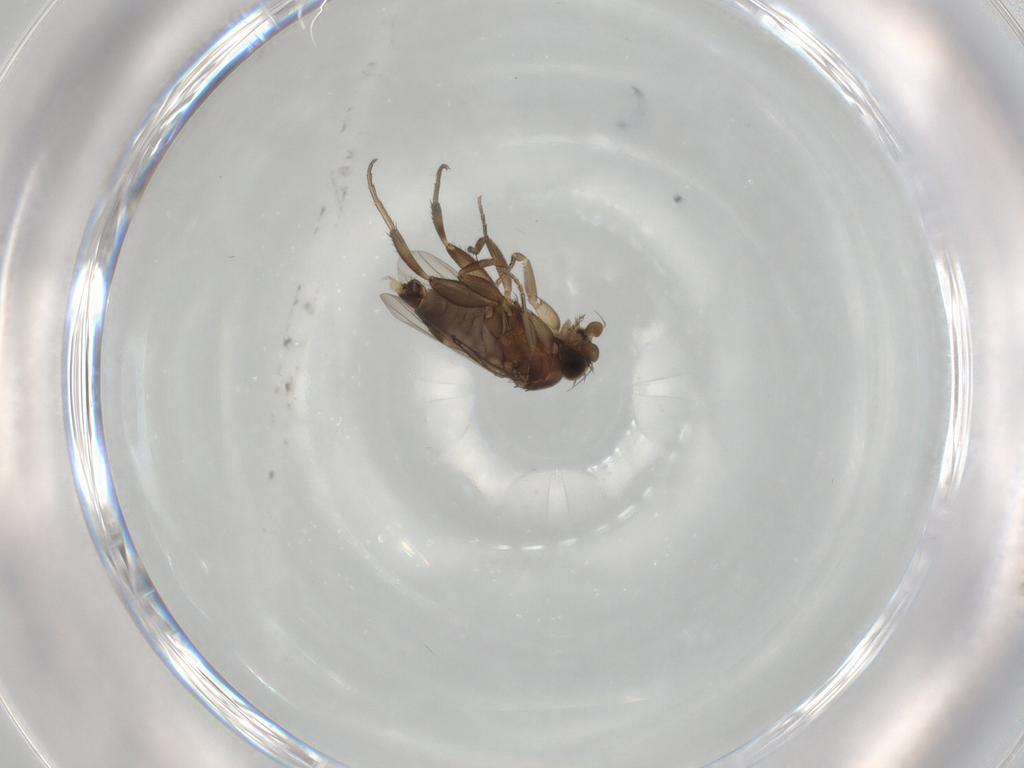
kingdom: Animalia
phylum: Arthropoda
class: Insecta
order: Diptera
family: Phoridae
